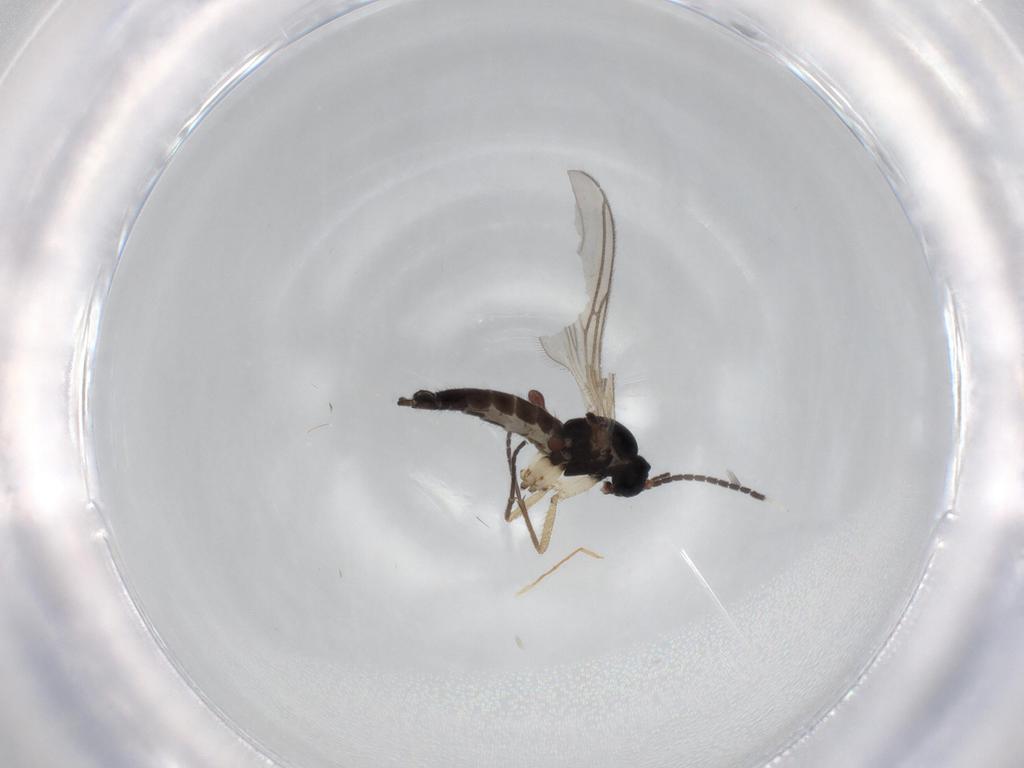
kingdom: Animalia
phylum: Arthropoda
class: Insecta
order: Diptera
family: Sciaridae
